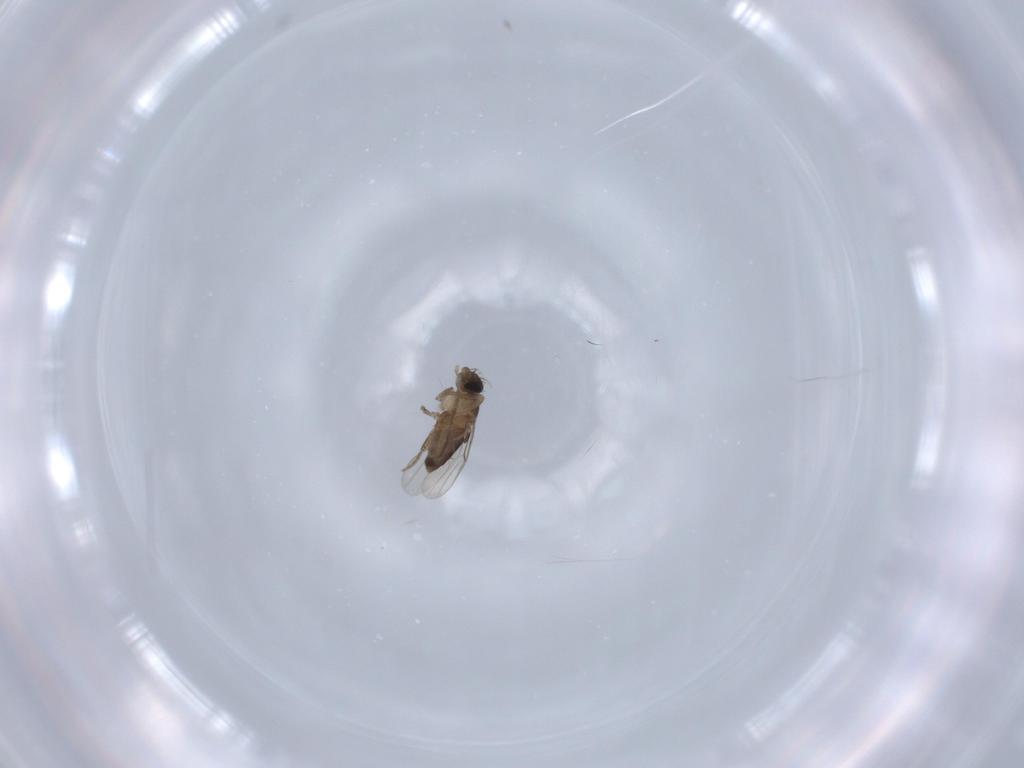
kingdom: Animalia
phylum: Arthropoda
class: Insecta
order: Diptera
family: Phoridae
